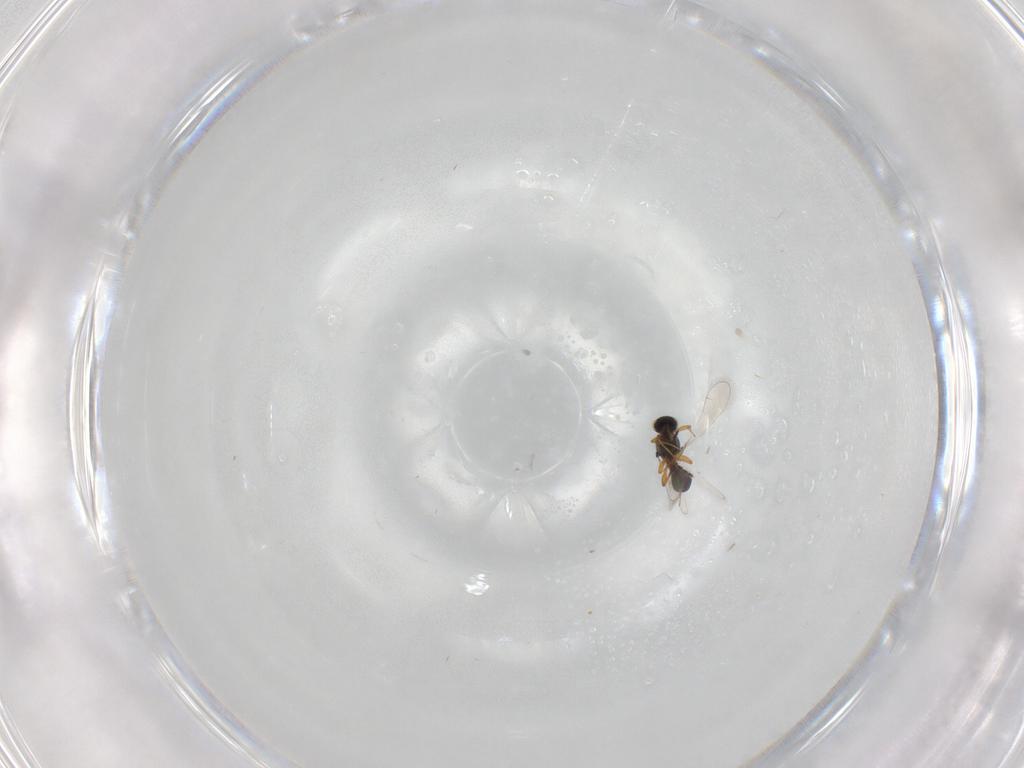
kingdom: Animalia
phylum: Arthropoda
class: Insecta
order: Hymenoptera
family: Platygastridae
